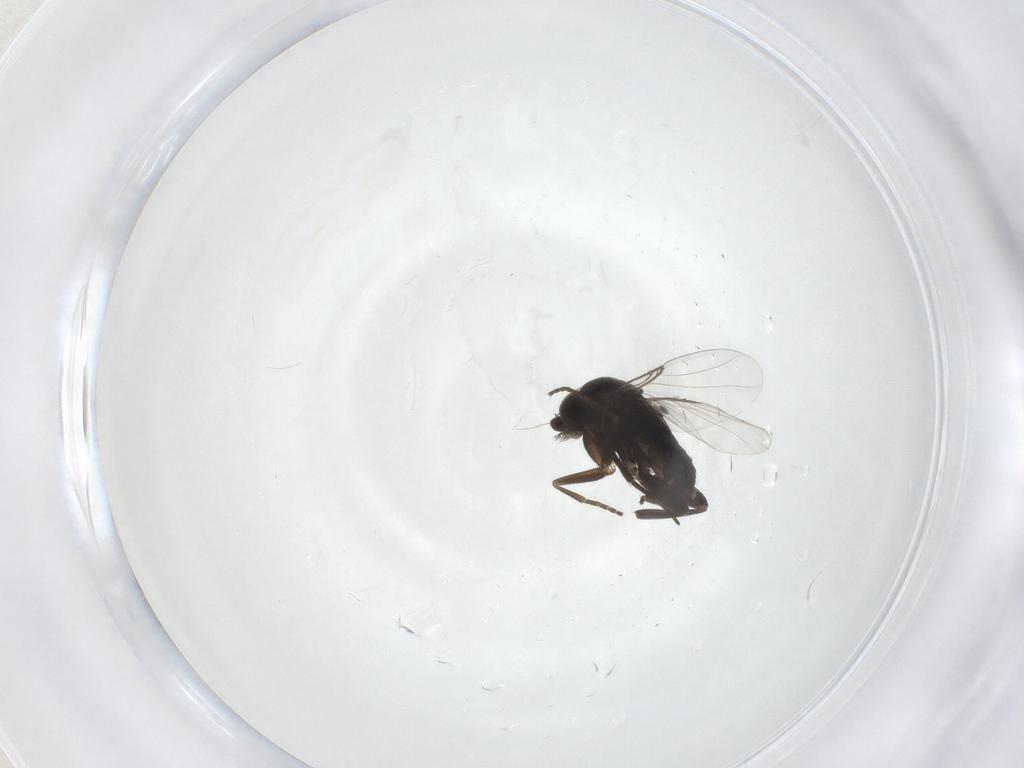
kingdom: Animalia
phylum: Arthropoda
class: Insecta
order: Diptera
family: Phoridae
